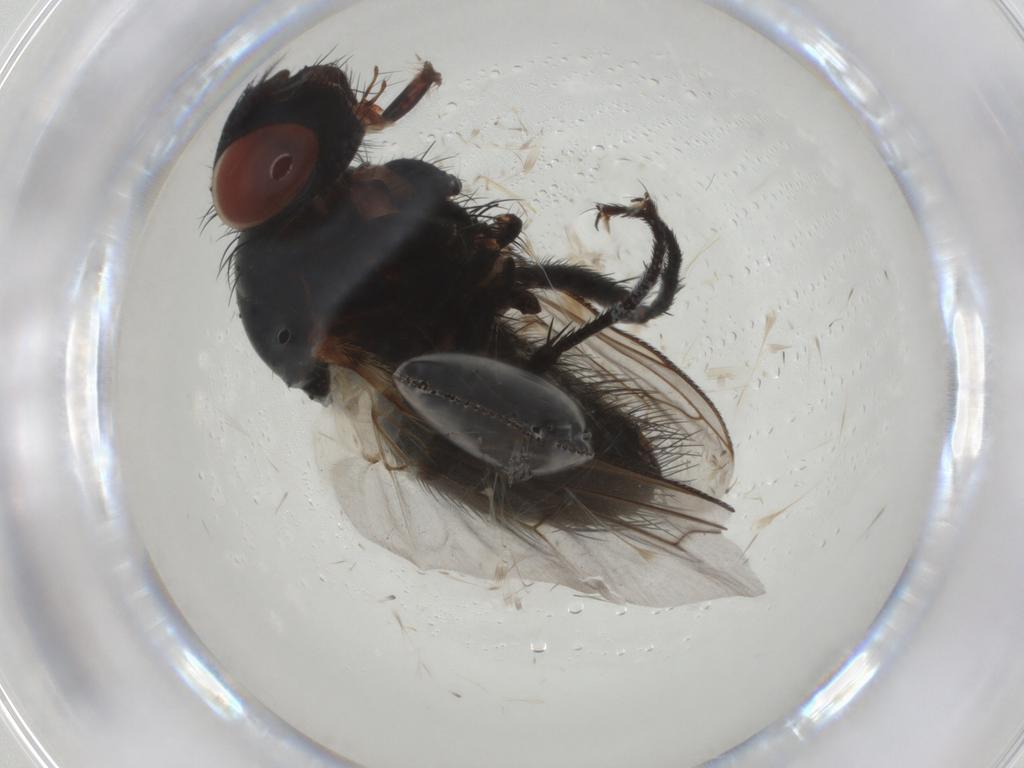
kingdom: Animalia
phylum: Arthropoda
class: Insecta
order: Diptera
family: Tachinidae
